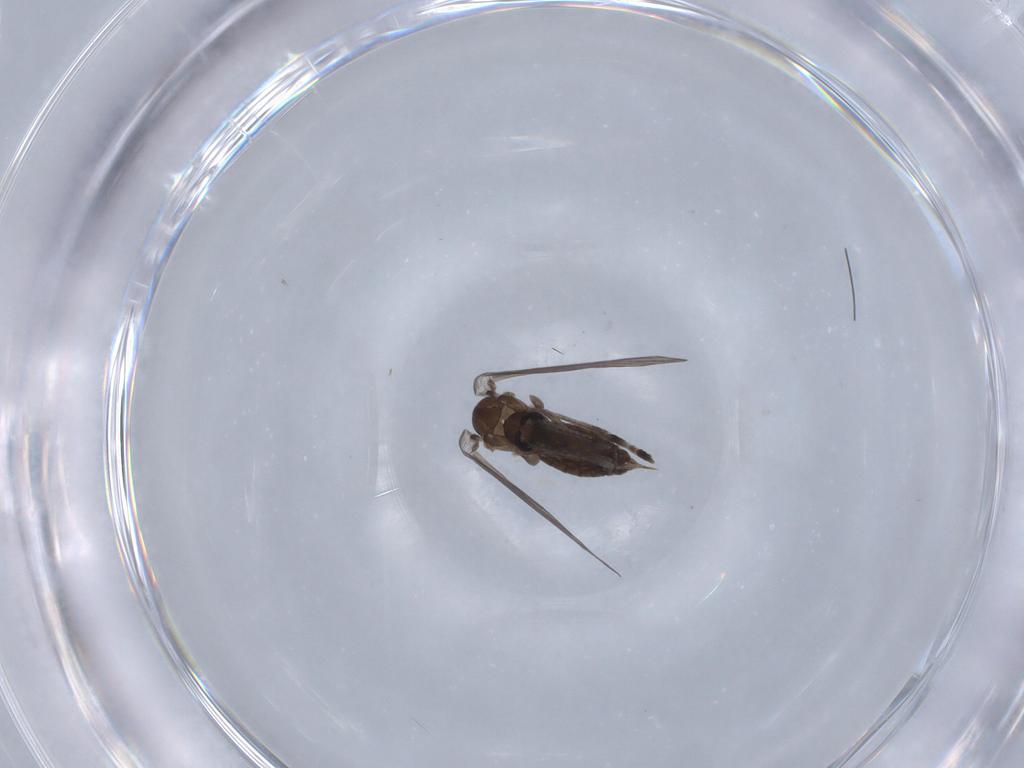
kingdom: Animalia
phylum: Arthropoda
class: Insecta
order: Diptera
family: Psychodidae
